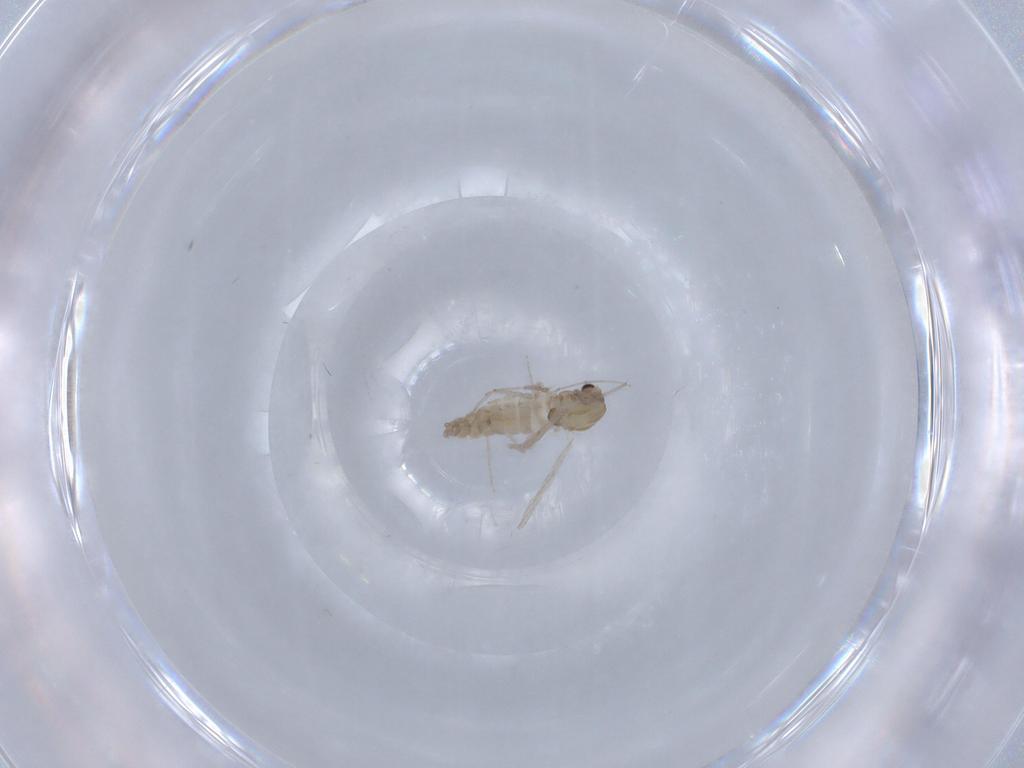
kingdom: Animalia
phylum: Arthropoda
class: Insecta
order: Diptera
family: Chironomidae
